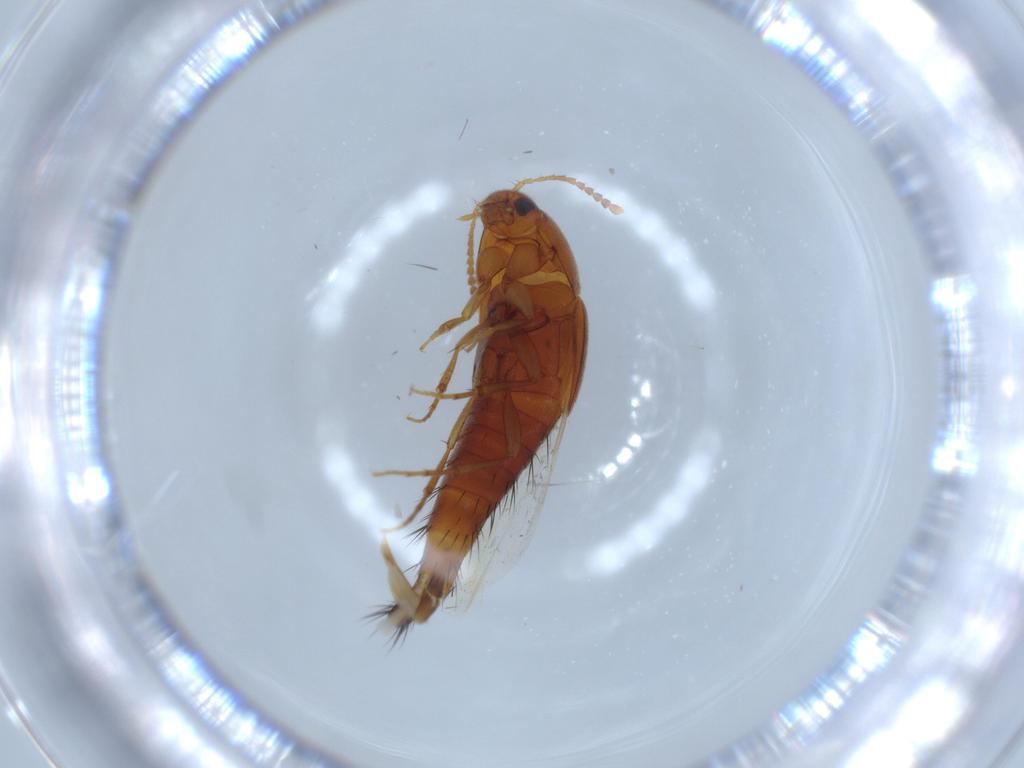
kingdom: Animalia
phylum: Arthropoda
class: Insecta
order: Coleoptera
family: Staphylinidae
